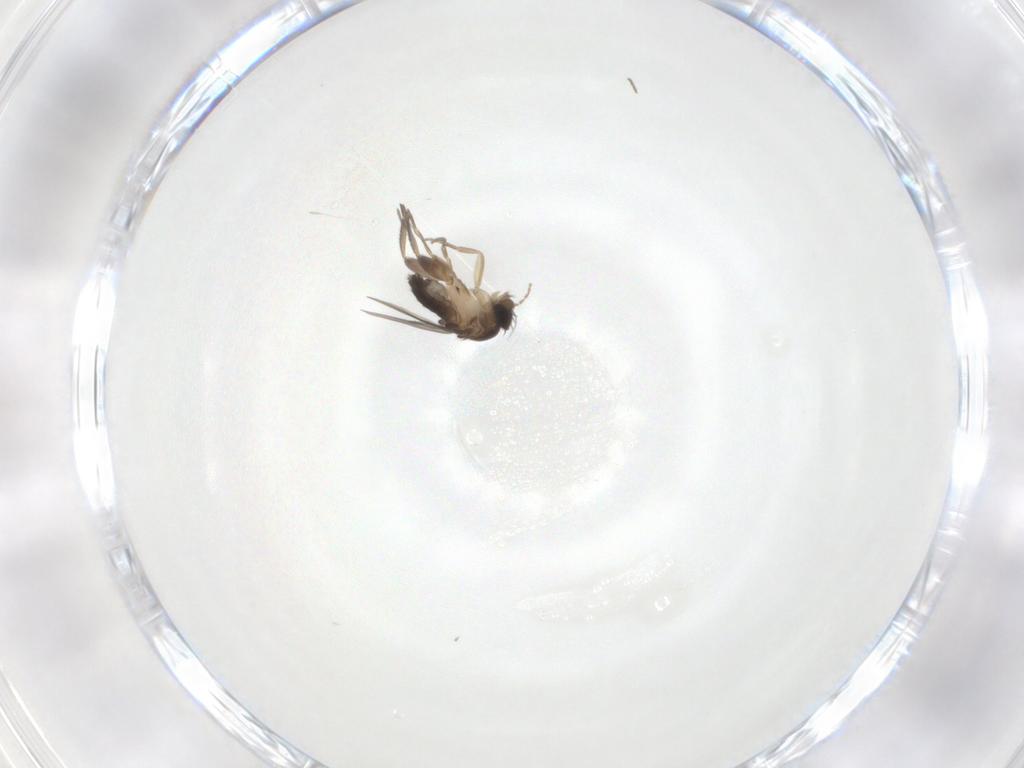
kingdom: Animalia
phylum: Arthropoda
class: Insecta
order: Diptera
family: Phoridae
